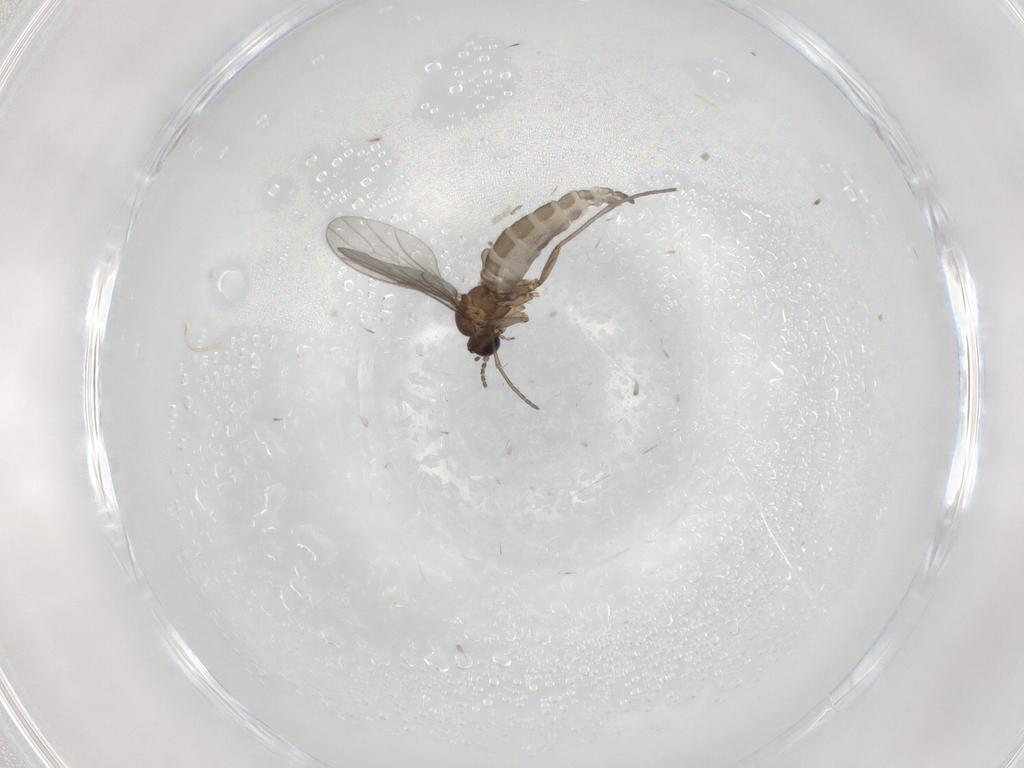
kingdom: Animalia
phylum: Arthropoda
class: Insecta
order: Diptera
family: Sciaridae
